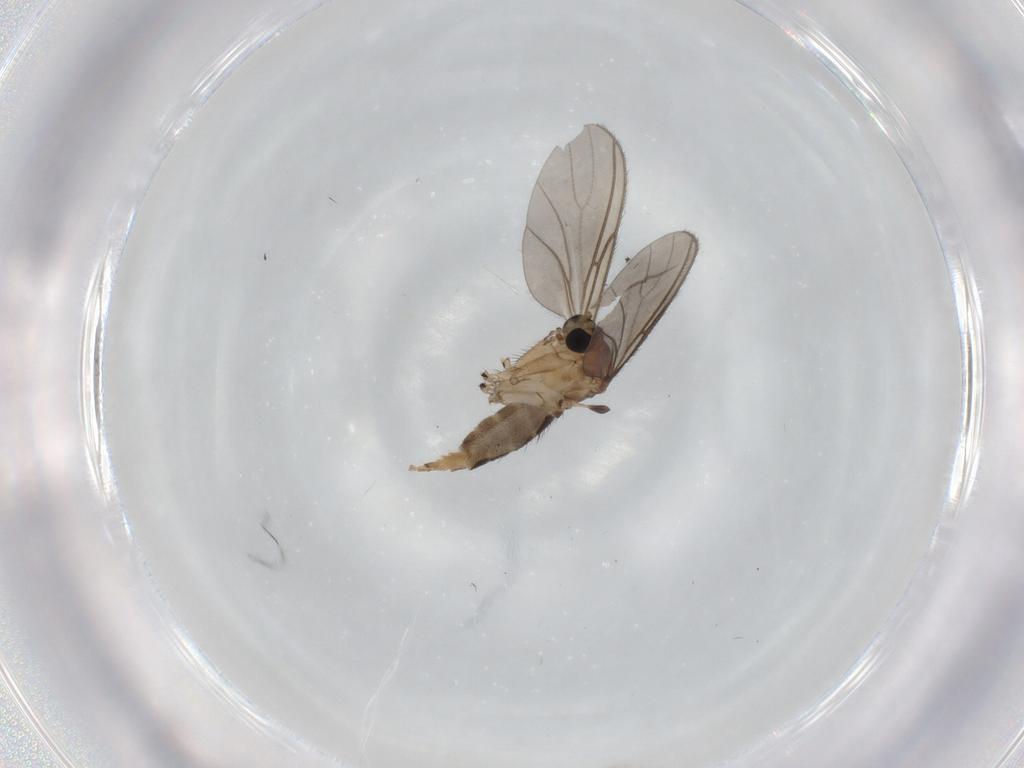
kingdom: Animalia
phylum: Arthropoda
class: Insecta
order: Diptera
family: Sciaridae
